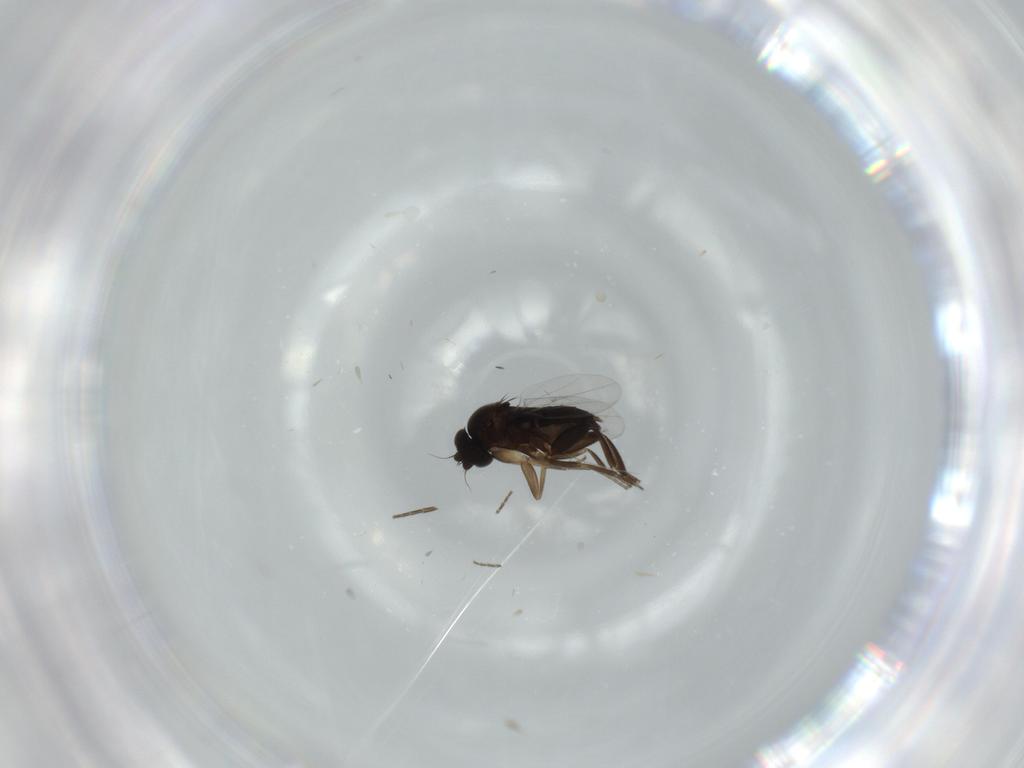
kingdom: Animalia
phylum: Arthropoda
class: Insecta
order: Diptera
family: Phoridae
